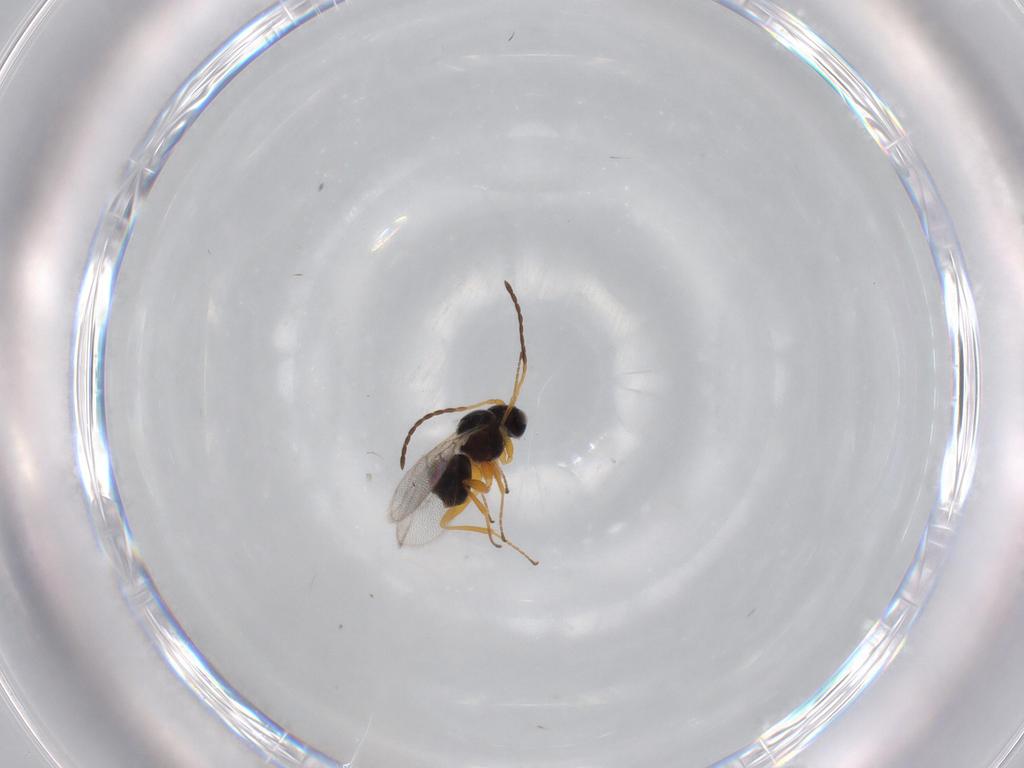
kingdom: Animalia
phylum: Arthropoda
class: Insecta
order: Hymenoptera
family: Figitidae
